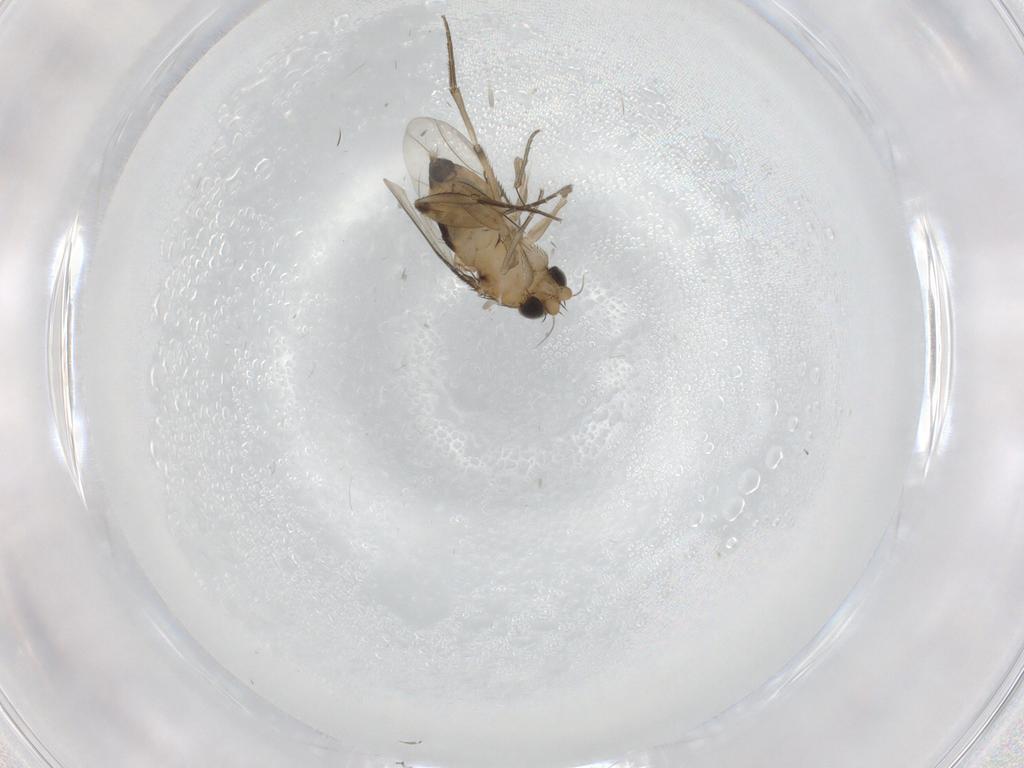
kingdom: Animalia
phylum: Arthropoda
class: Insecta
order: Diptera
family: Phoridae
